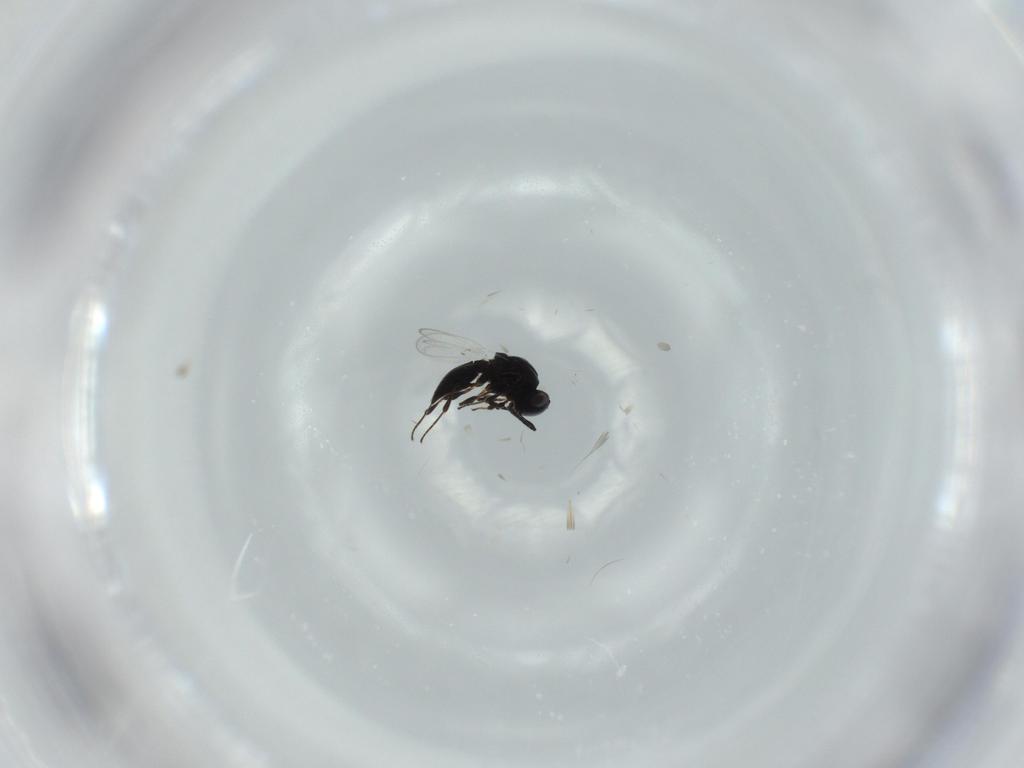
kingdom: Animalia
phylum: Arthropoda
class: Insecta
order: Hymenoptera
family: Platygastridae
